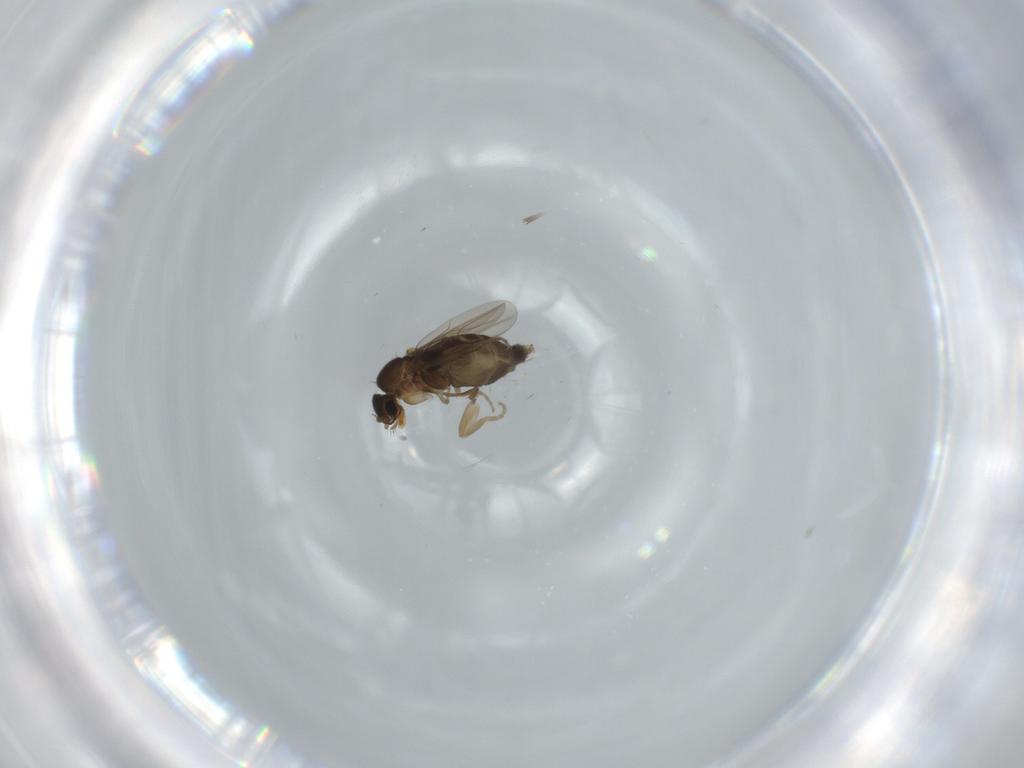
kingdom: Animalia
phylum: Arthropoda
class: Insecta
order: Diptera
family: Phoridae
